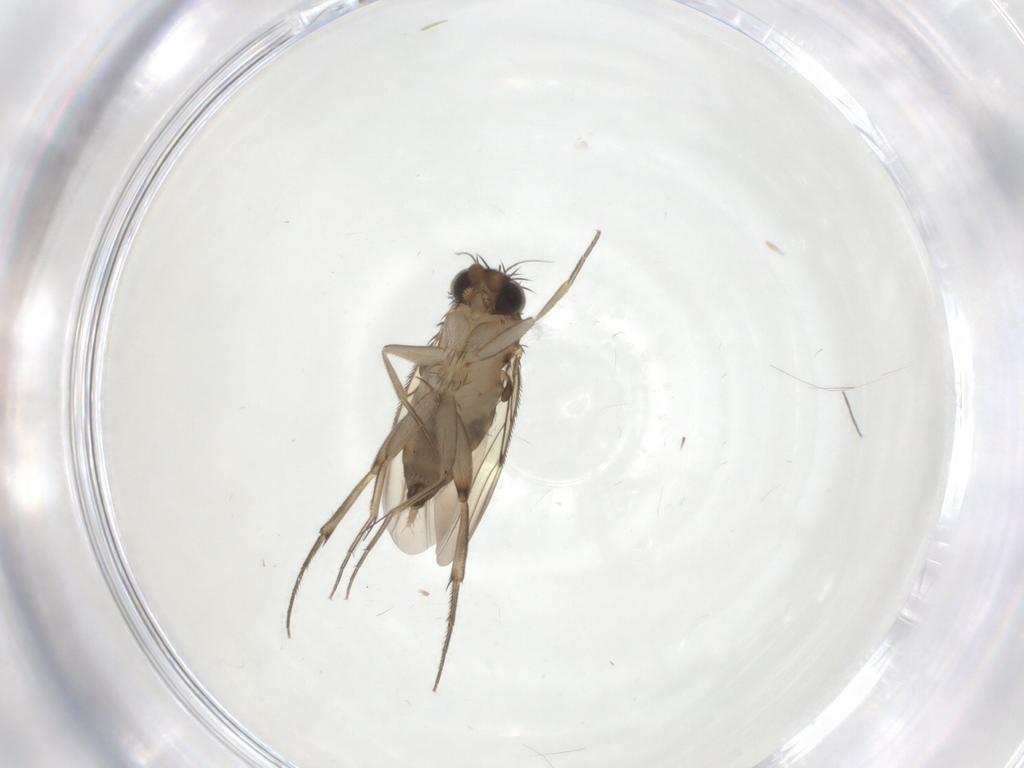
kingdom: Animalia
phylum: Arthropoda
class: Insecta
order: Diptera
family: Phoridae
